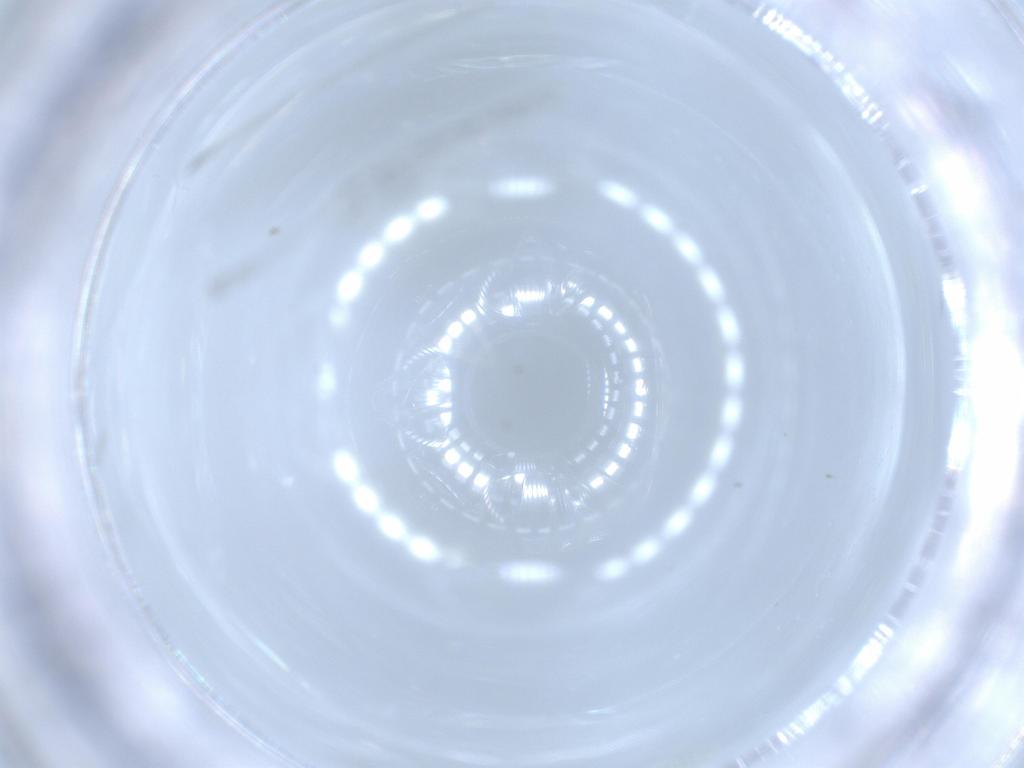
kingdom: Animalia
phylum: Arthropoda
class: Insecta
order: Diptera
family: Cecidomyiidae
